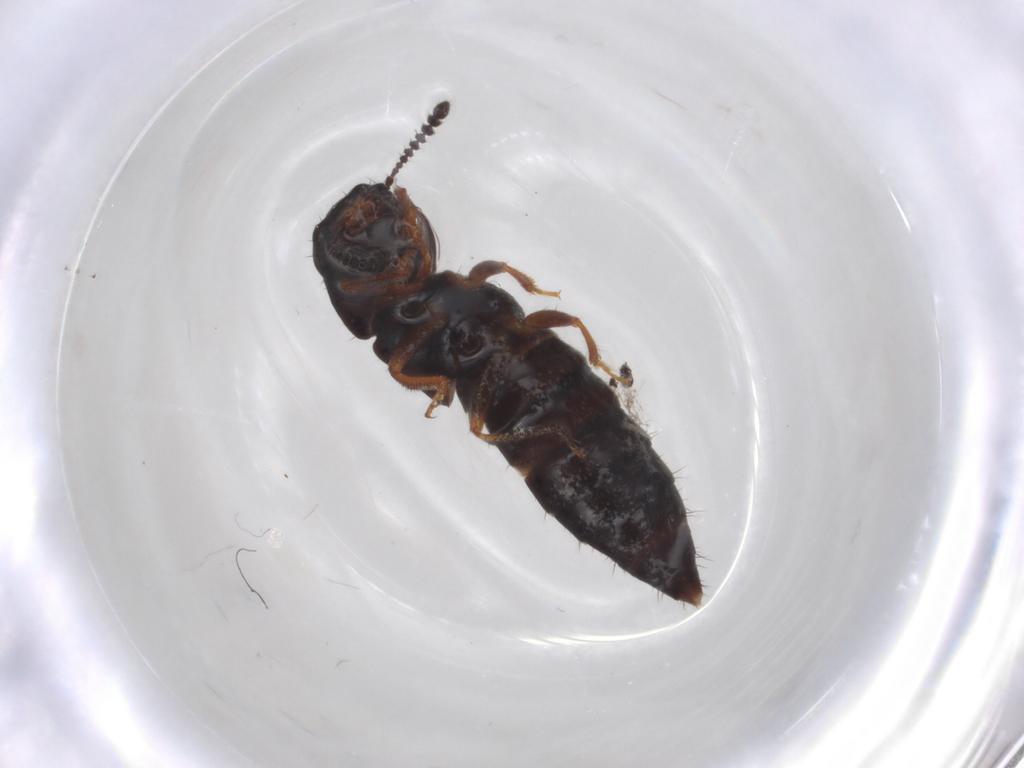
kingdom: Animalia
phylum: Arthropoda
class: Insecta
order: Coleoptera
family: Staphylinidae
